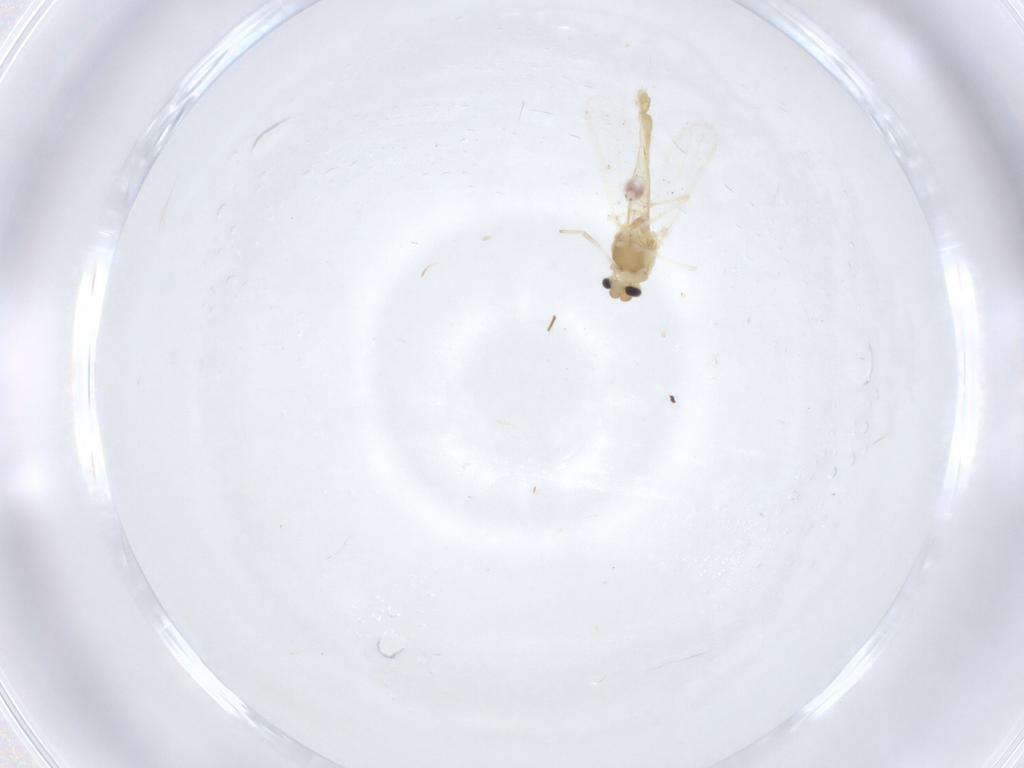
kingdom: Animalia
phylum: Arthropoda
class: Insecta
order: Diptera
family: Chironomidae
